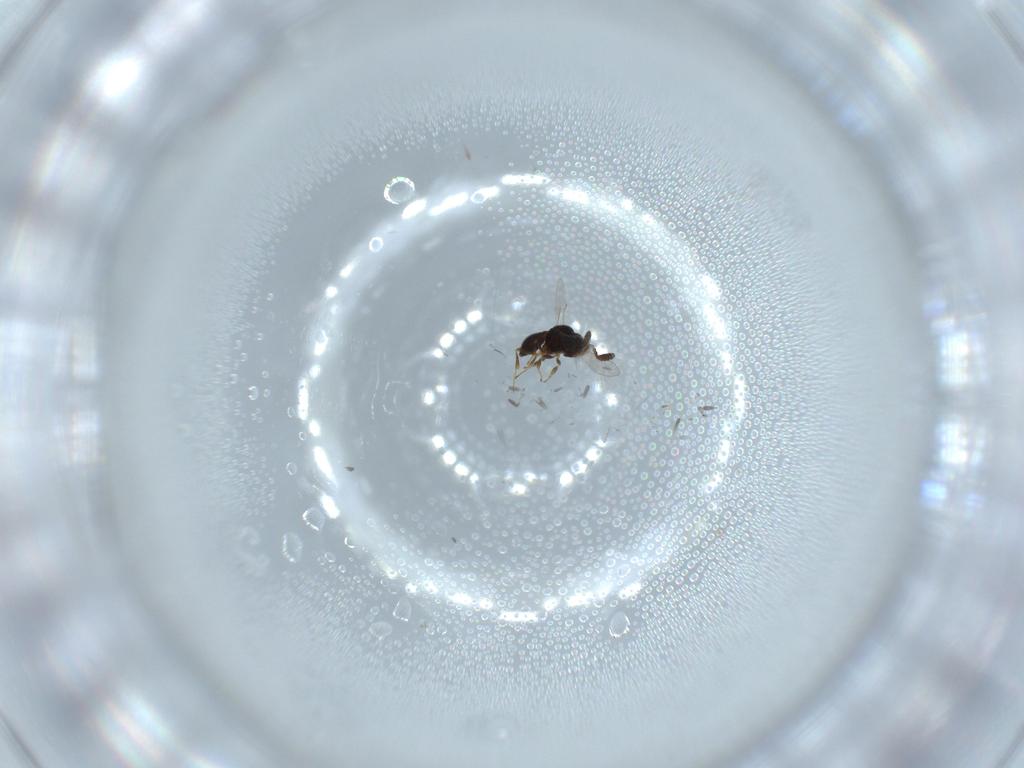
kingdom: Animalia
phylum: Arthropoda
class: Insecta
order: Hymenoptera
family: Scelionidae
